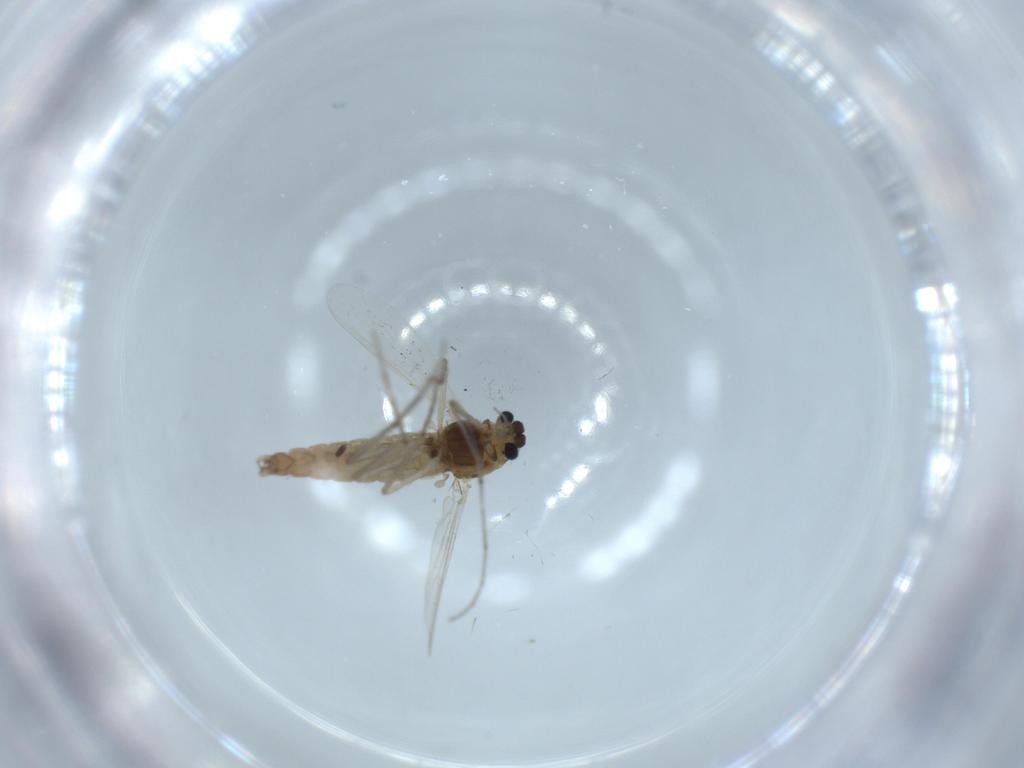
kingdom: Animalia
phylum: Arthropoda
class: Insecta
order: Diptera
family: Chironomidae
